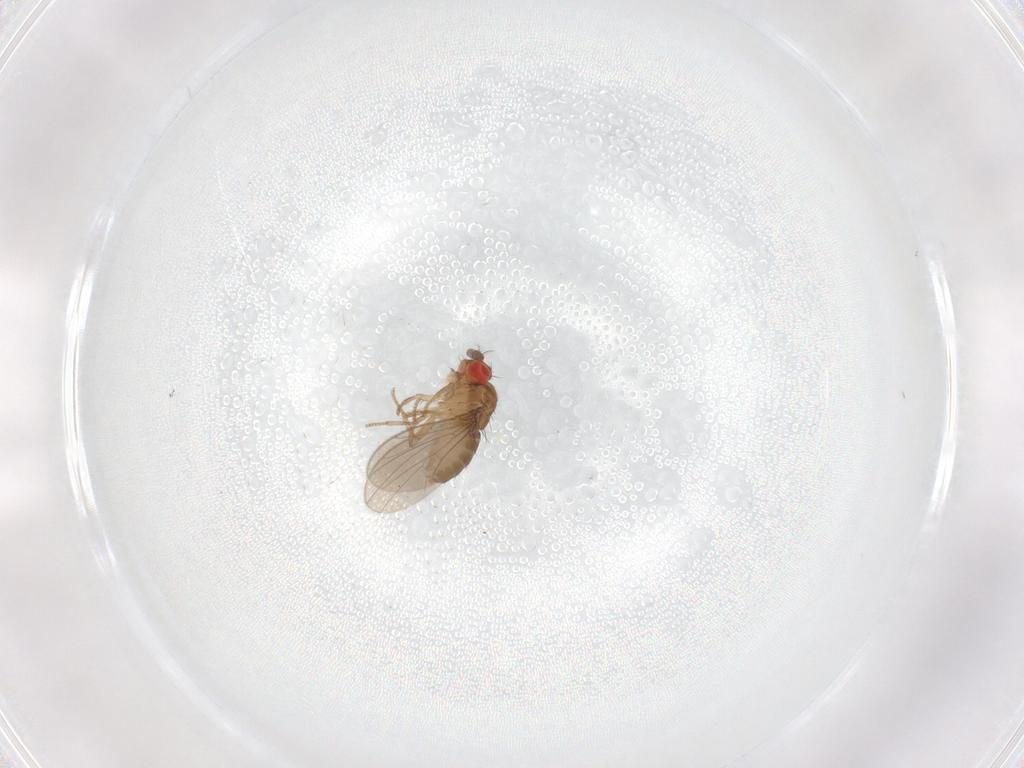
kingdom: Animalia
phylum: Arthropoda
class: Insecta
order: Diptera
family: Drosophilidae
